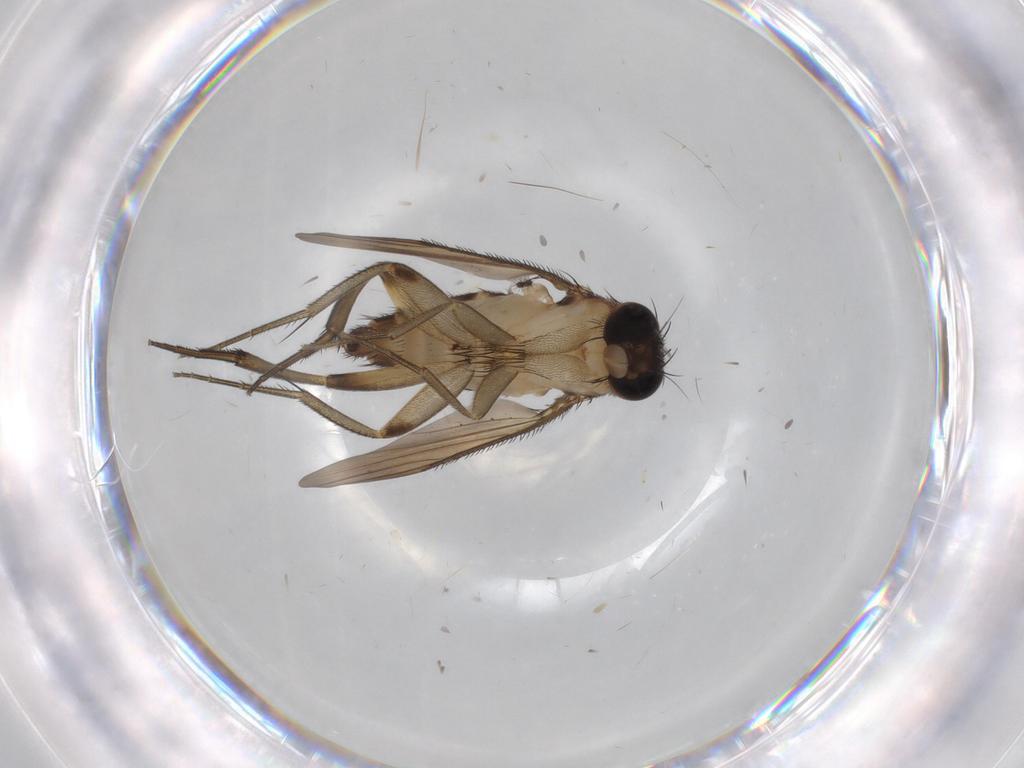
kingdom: Animalia
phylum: Arthropoda
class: Insecta
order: Diptera
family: Phoridae
